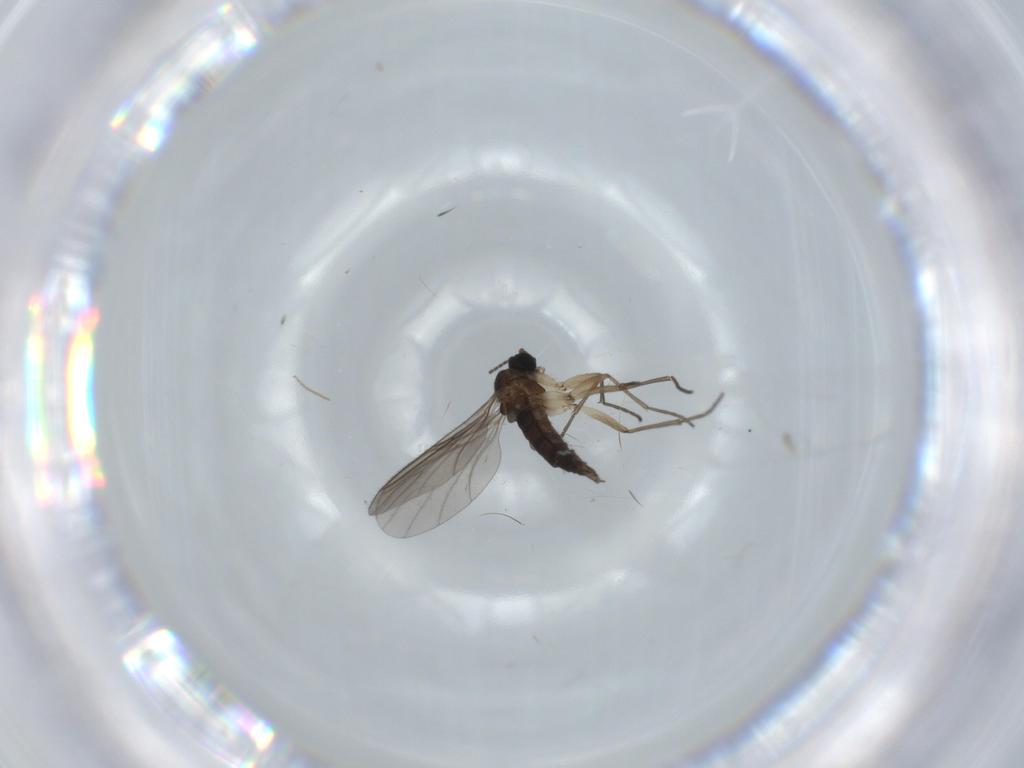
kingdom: Animalia
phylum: Arthropoda
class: Insecta
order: Diptera
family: Sciaridae
